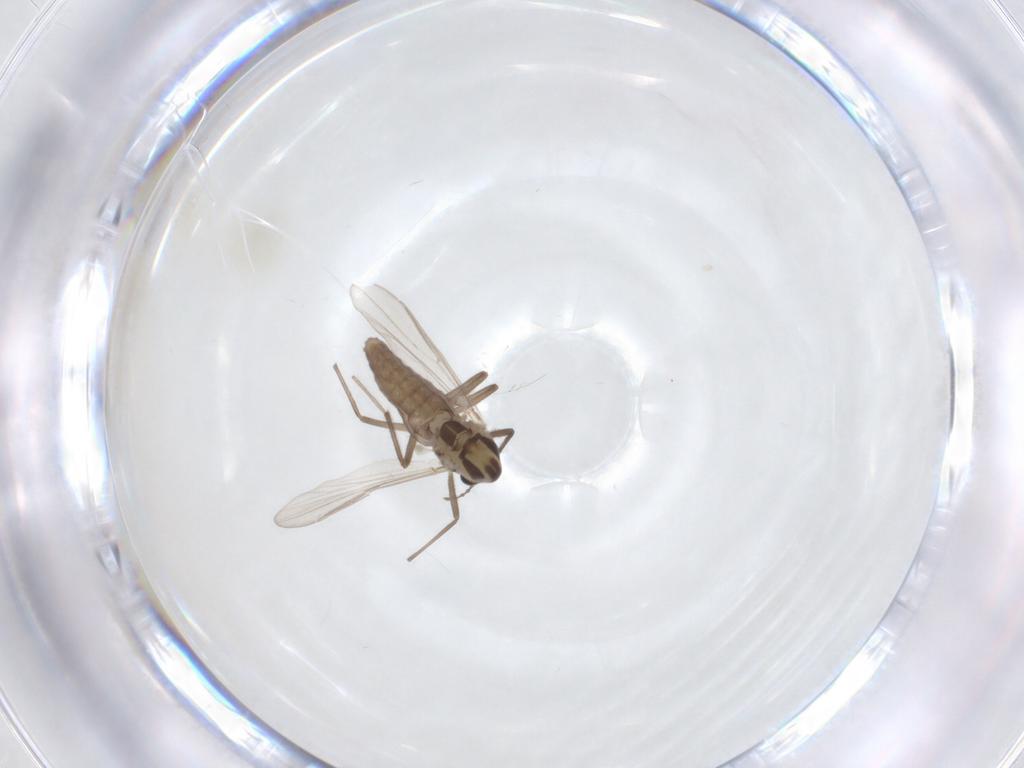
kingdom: Animalia
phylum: Arthropoda
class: Insecta
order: Diptera
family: Chironomidae
